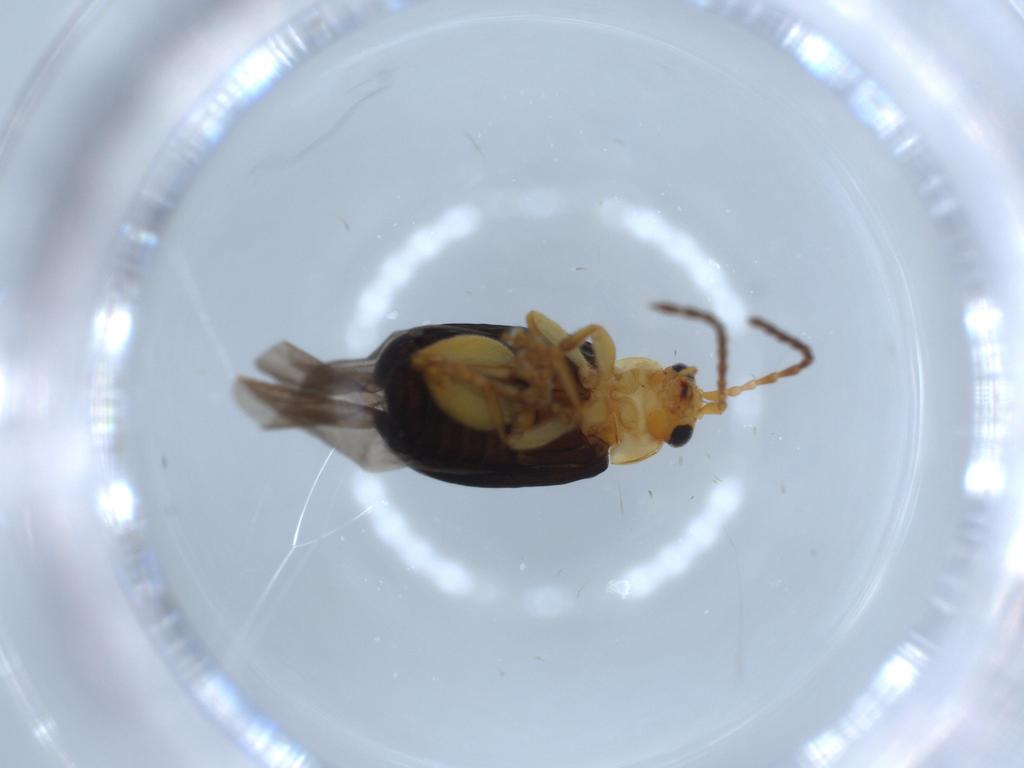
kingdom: Animalia
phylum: Arthropoda
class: Insecta
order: Coleoptera
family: Chrysomelidae
